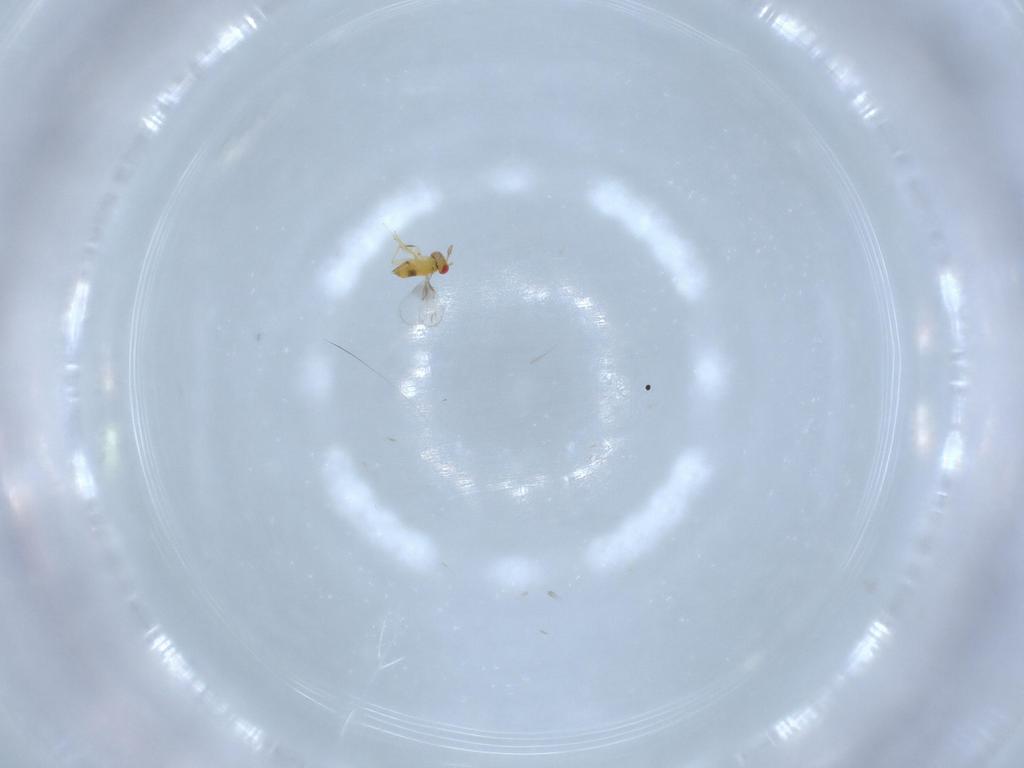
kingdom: Animalia
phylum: Arthropoda
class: Insecta
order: Hymenoptera
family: Trichogrammatidae
